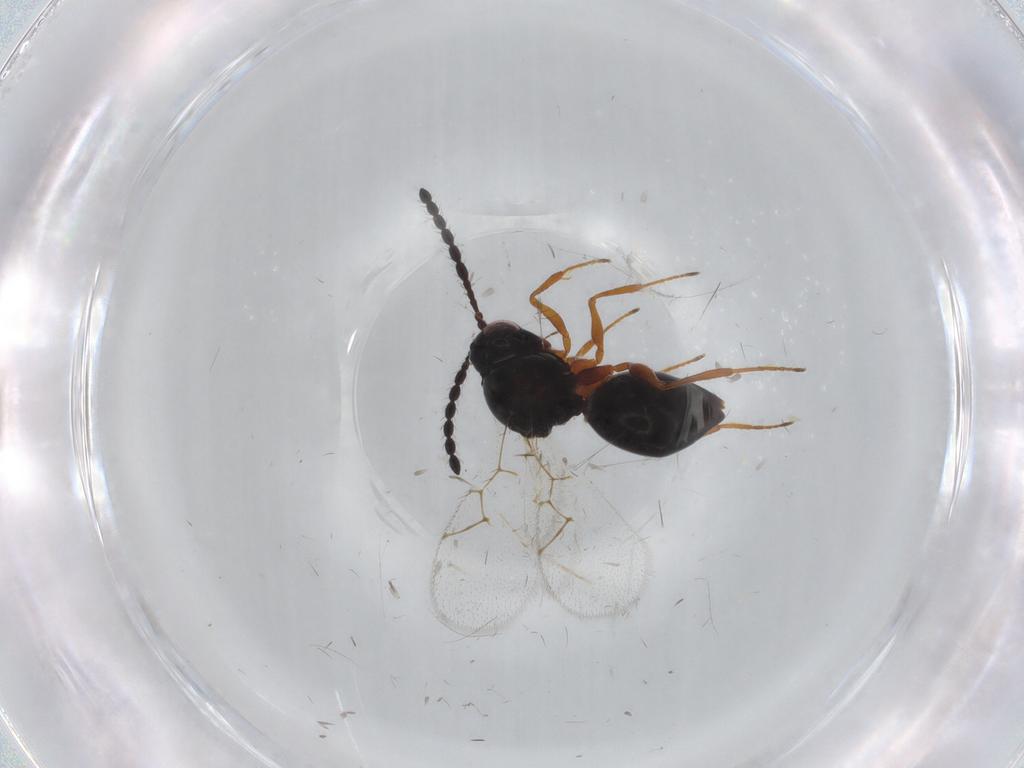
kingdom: Animalia
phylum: Arthropoda
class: Insecta
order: Hymenoptera
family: Figitidae
